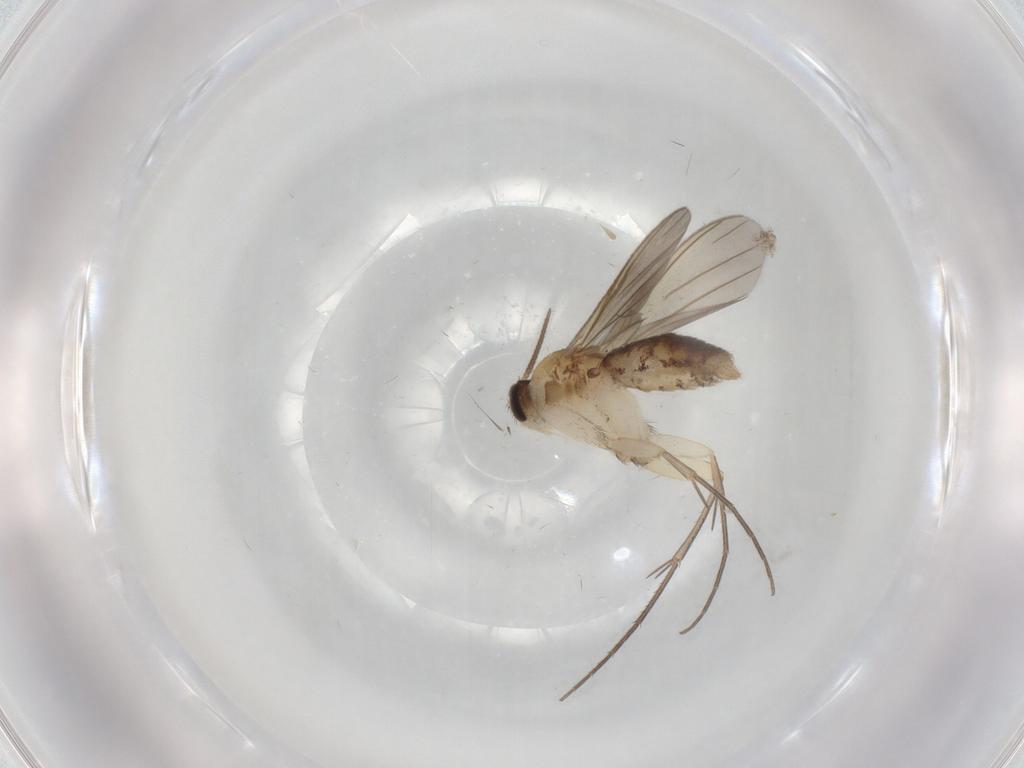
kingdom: Animalia
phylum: Arthropoda
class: Insecta
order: Diptera
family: Mycetophilidae
